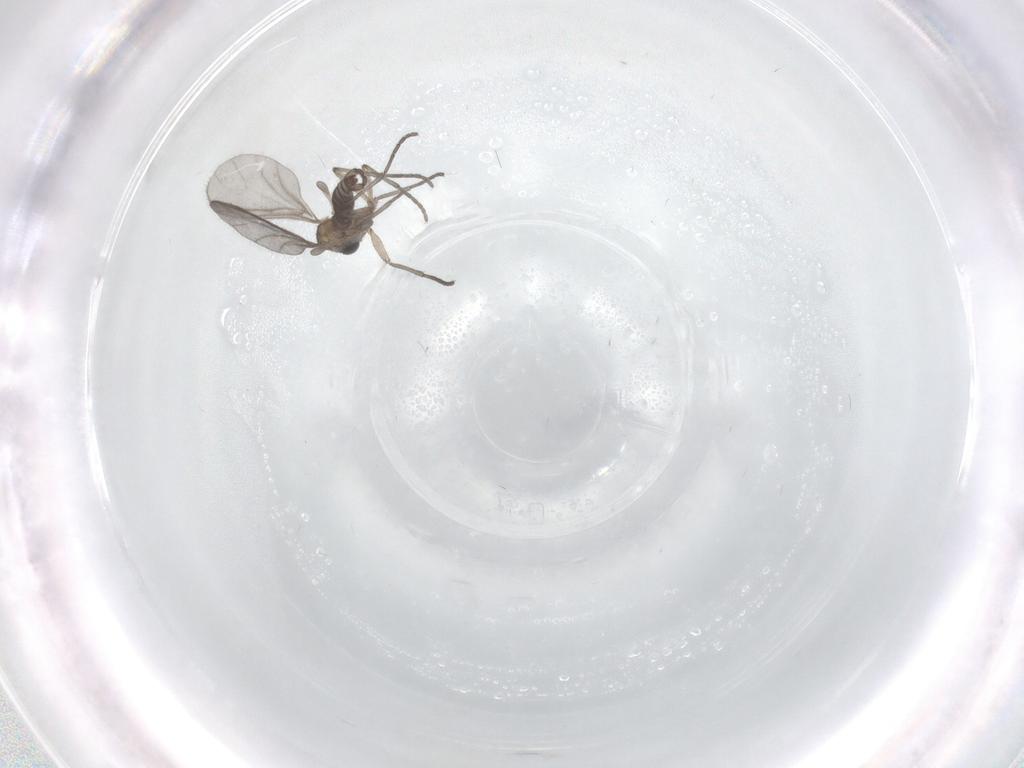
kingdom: Animalia
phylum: Arthropoda
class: Insecta
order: Diptera
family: Sciaridae
